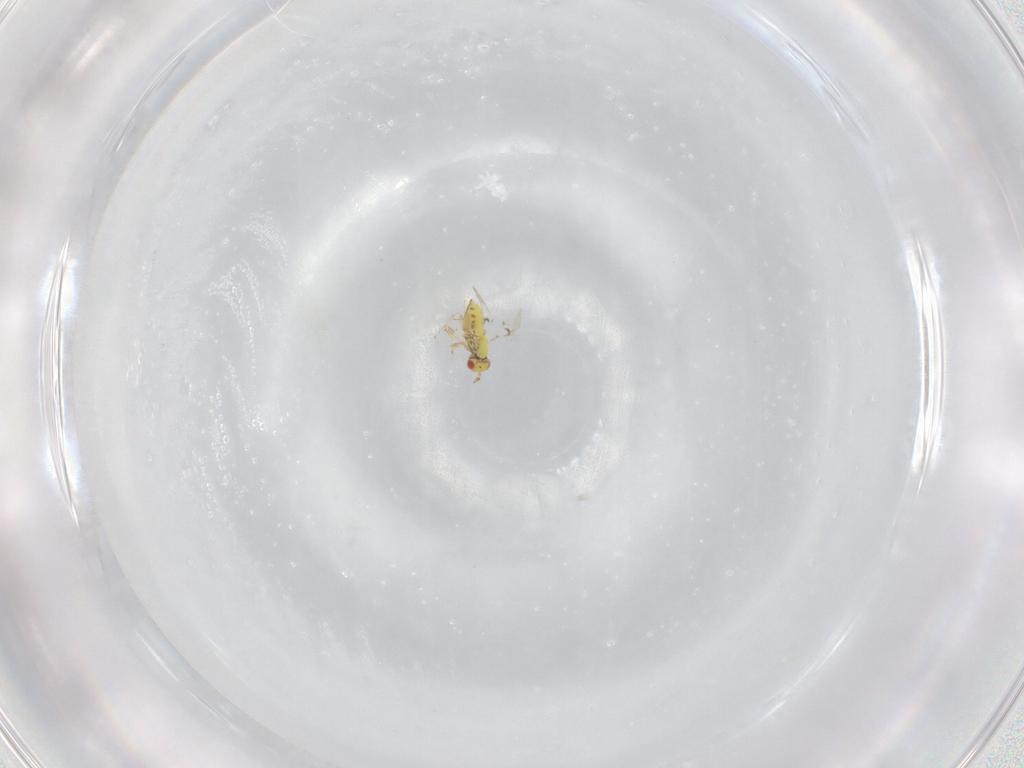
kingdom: Animalia
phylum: Arthropoda
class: Insecta
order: Hymenoptera
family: Trichogrammatidae
